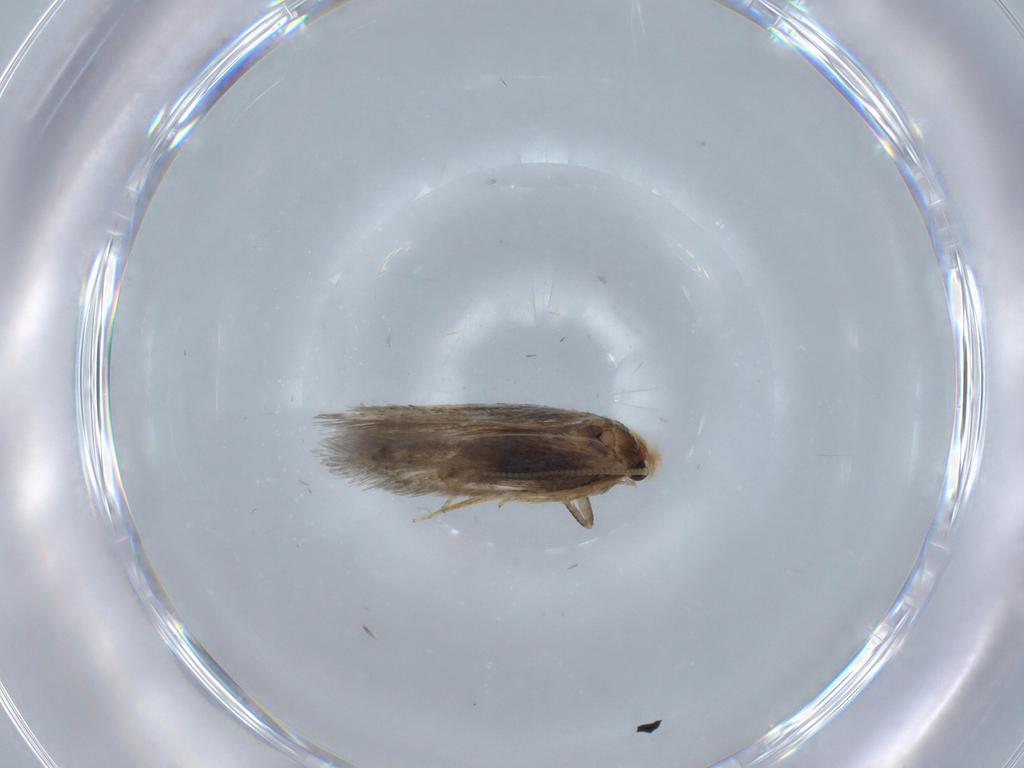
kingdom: Animalia
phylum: Arthropoda
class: Insecta
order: Lepidoptera
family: Nepticulidae
